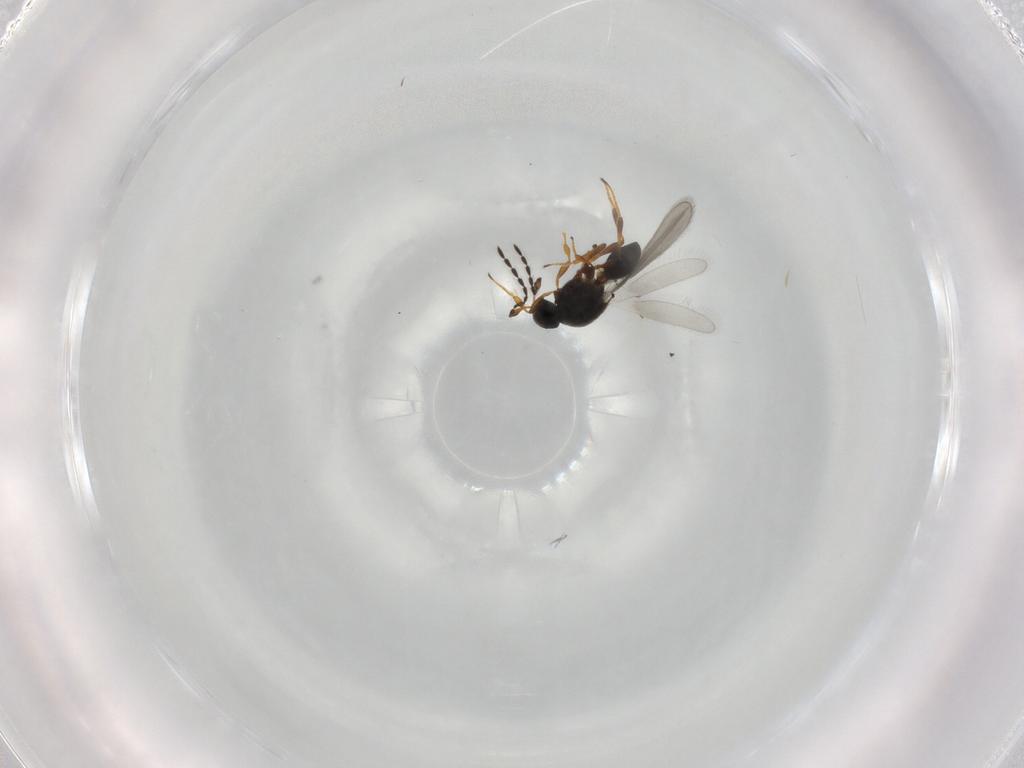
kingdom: Animalia
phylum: Arthropoda
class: Insecta
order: Hymenoptera
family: Platygastridae
